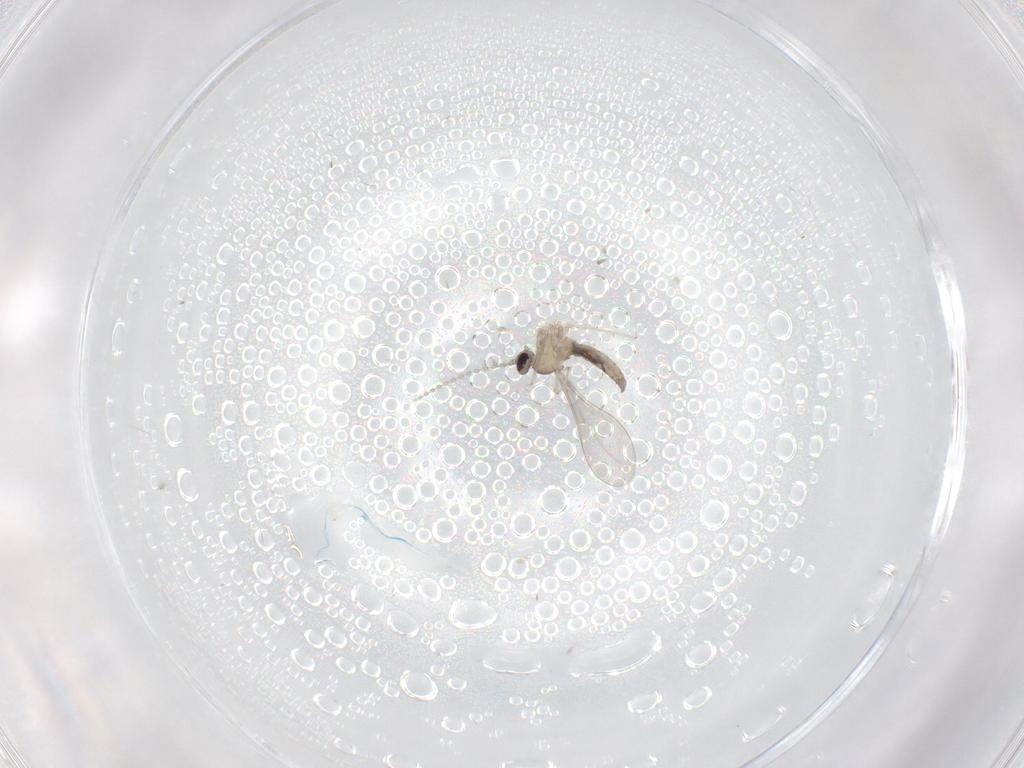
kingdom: Animalia
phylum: Arthropoda
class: Insecta
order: Diptera
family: Cecidomyiidae
